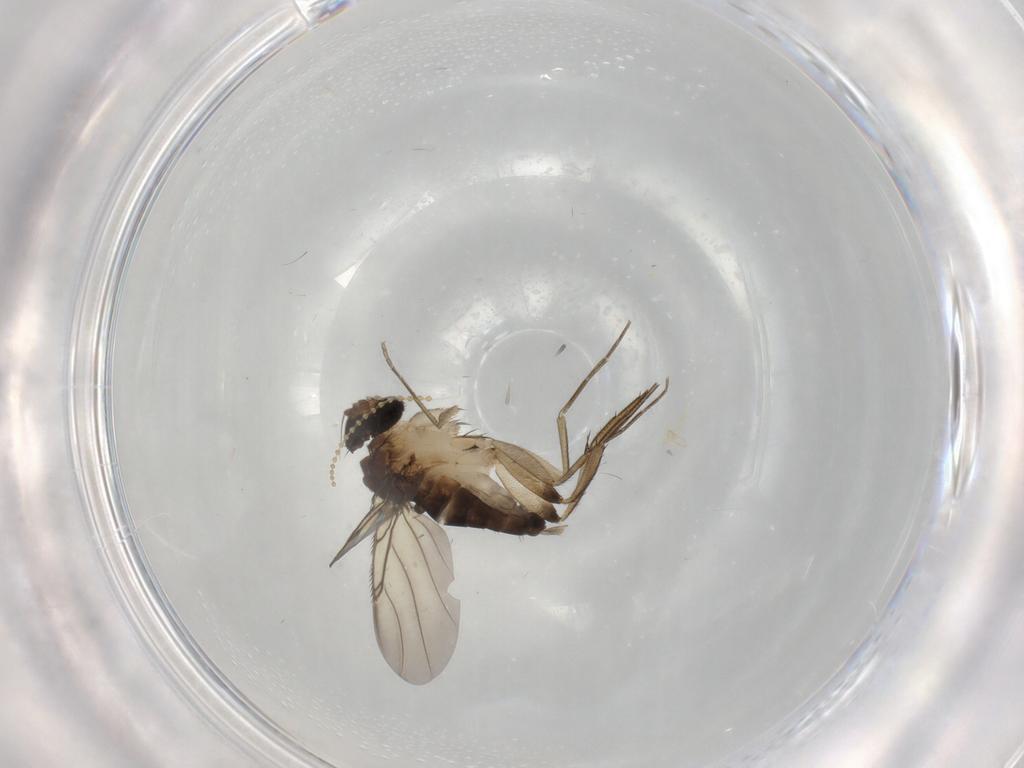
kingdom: Animalia
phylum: Arthropoda
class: Insecta
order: Diptera
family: Phoridae
